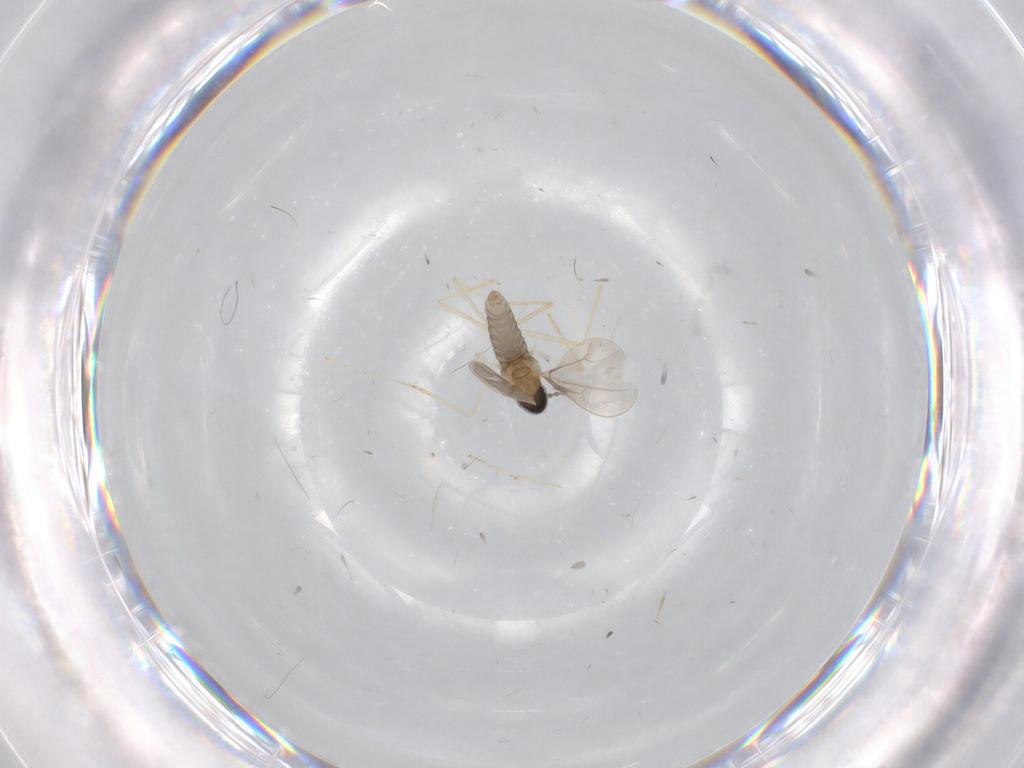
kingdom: Animalia
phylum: Arthropoda
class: Insecta
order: Diptera
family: Cecidomyiidae
